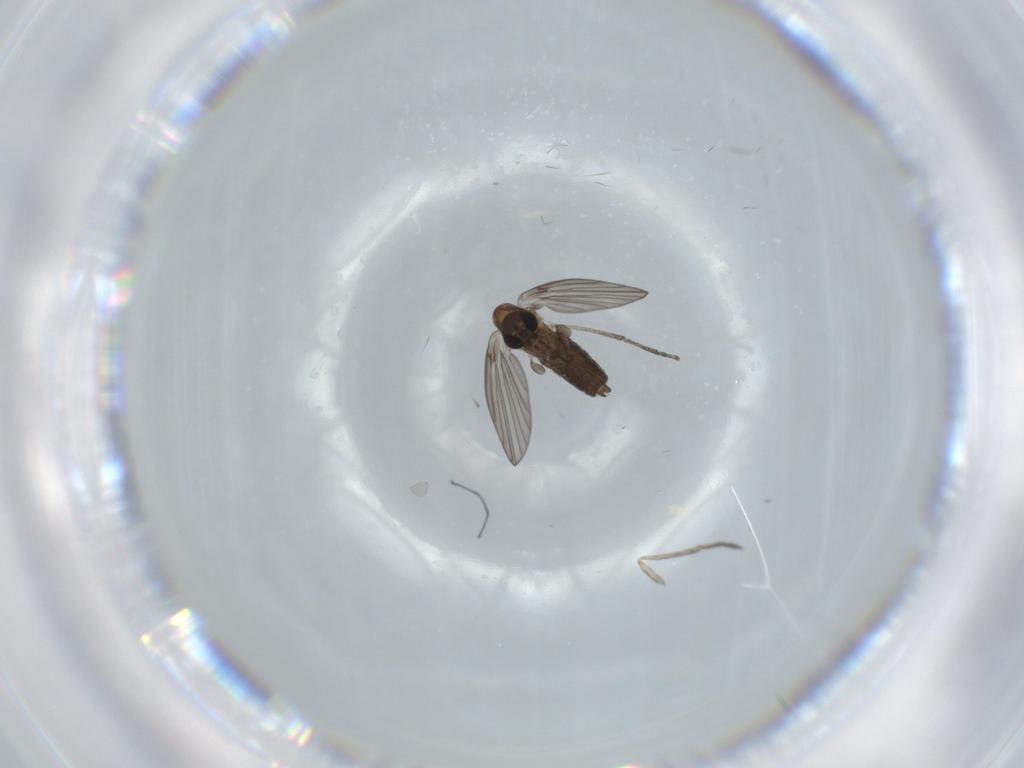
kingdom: Animalia
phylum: Arthropoda
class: Insecta
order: Diptera
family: Psychodidae
